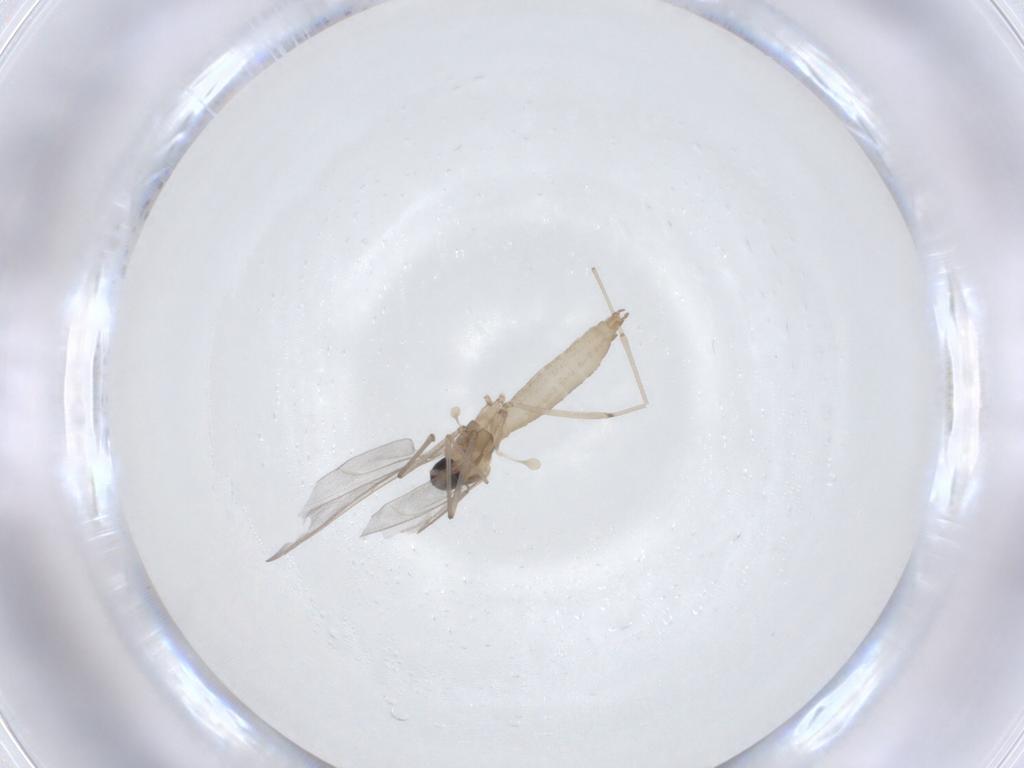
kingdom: Animalia
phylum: Arthropoda
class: Insecta
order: Diptera
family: Cecidomyiidae
